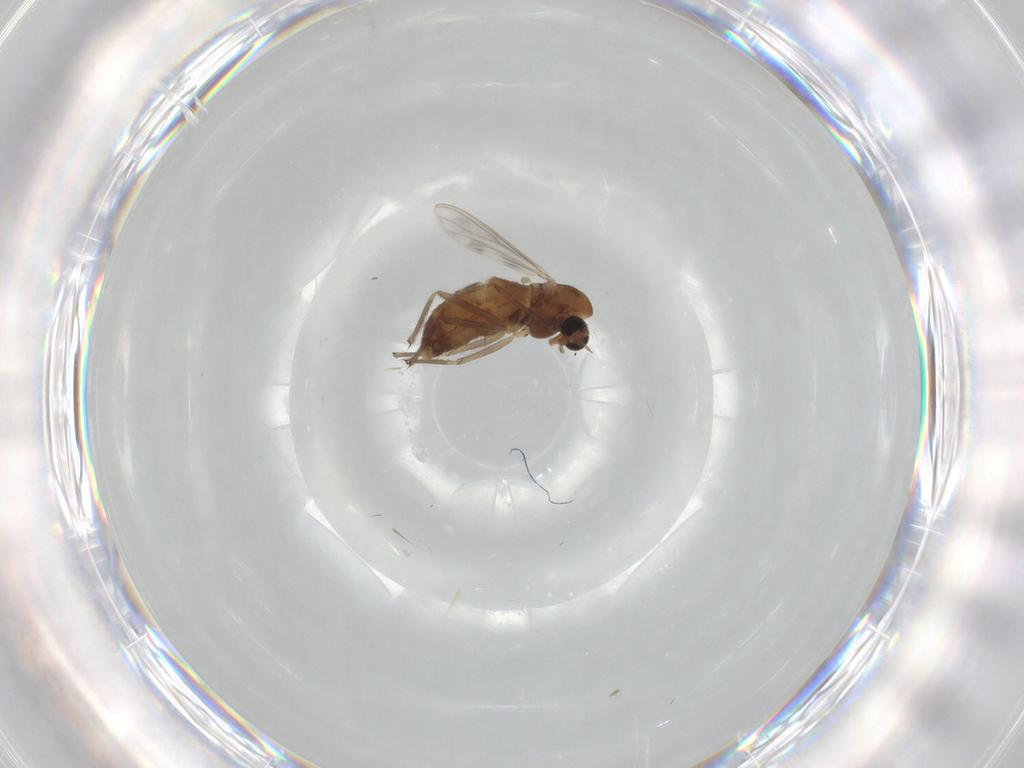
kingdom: Animalia
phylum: Arthropoda
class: Insecta
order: Diptera
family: Chironomidae
